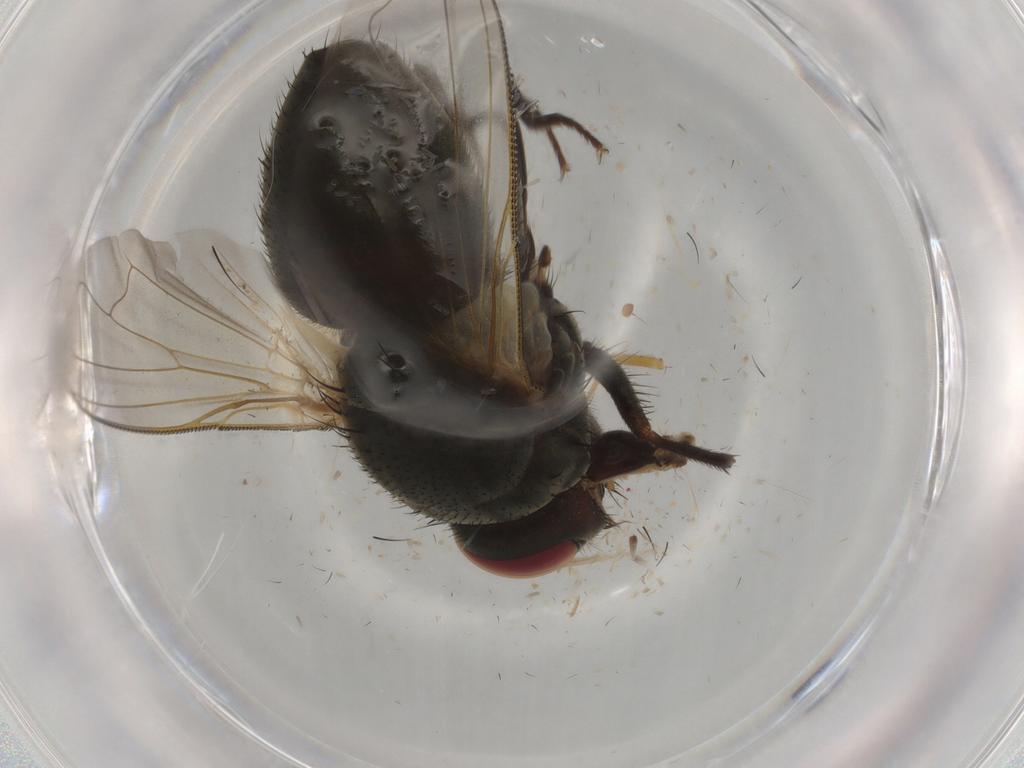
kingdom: Animalia
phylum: Arthropoda
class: Insecta
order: Diptera
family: Muscidae
